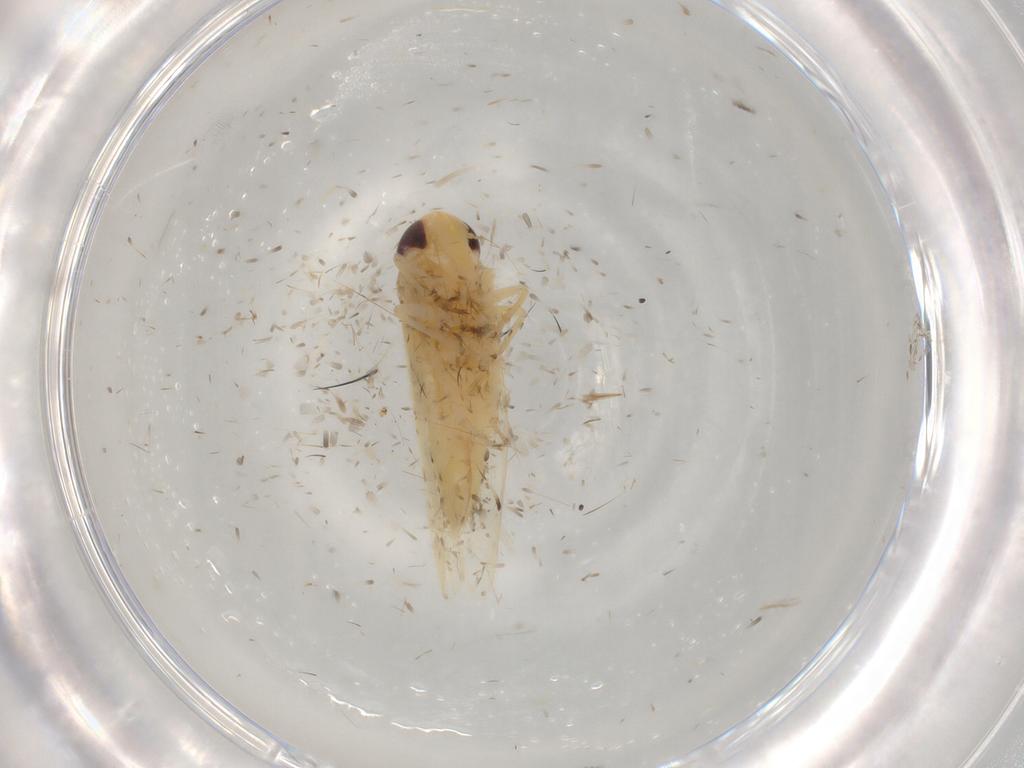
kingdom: Animalia
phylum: Arthropoda
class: Insecta
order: Hemiptera
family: Cicadellidae
